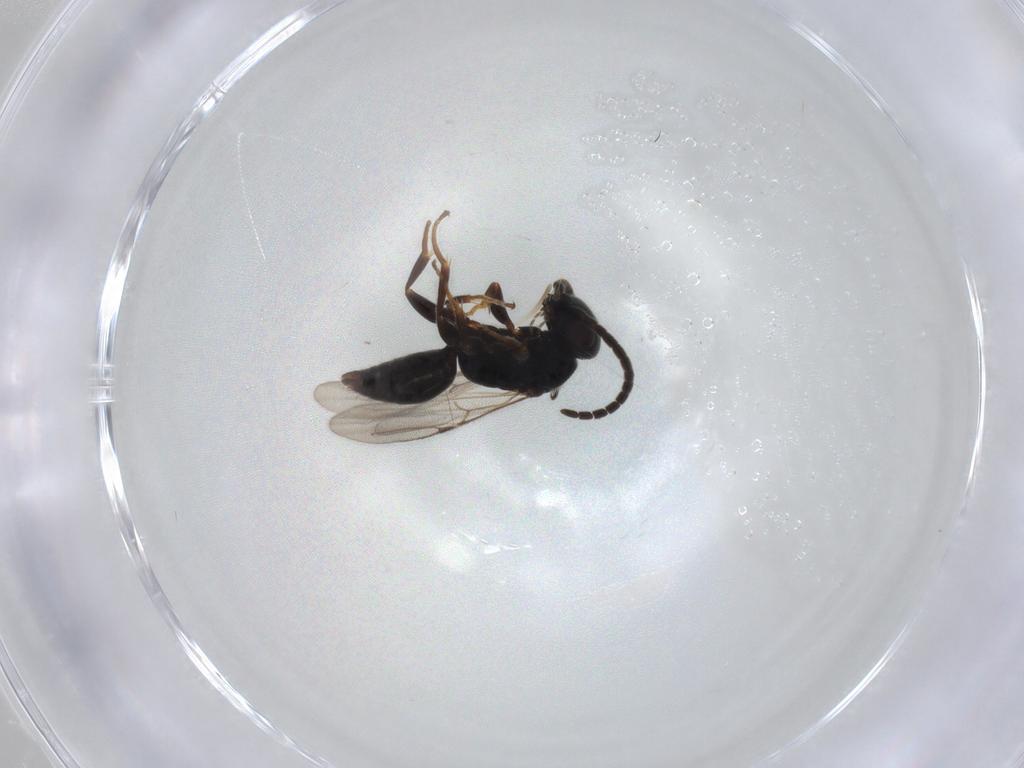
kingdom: Animalia
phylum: Arthropoda
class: Insecta
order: Hymenoptera
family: Bethylidae
